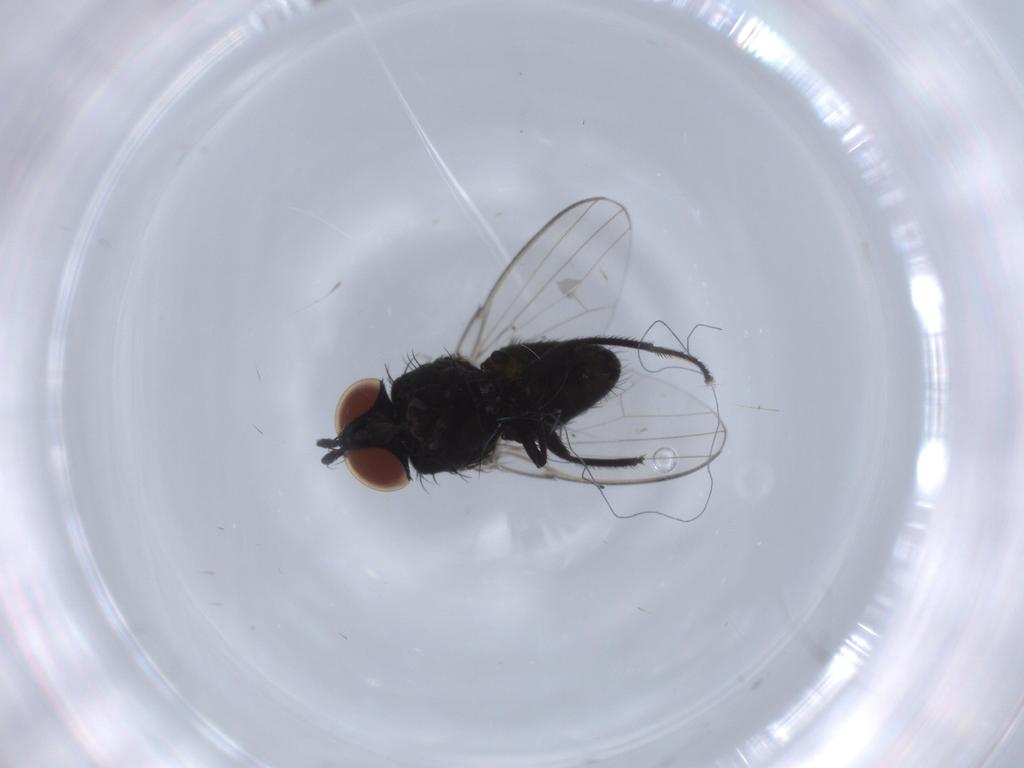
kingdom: Animalia
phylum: Arthropoda
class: Insecta
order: Diptera
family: Milichiidae
